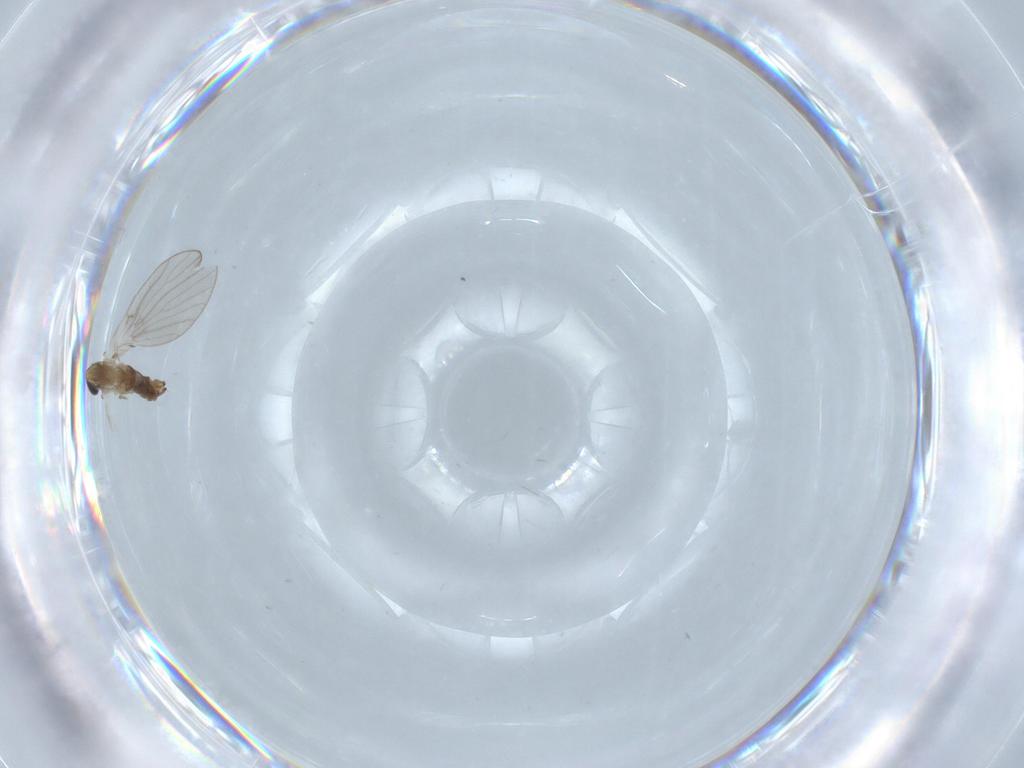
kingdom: Animalia
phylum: Arthropoda
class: Insecta
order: Diptera
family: Psychodidae
